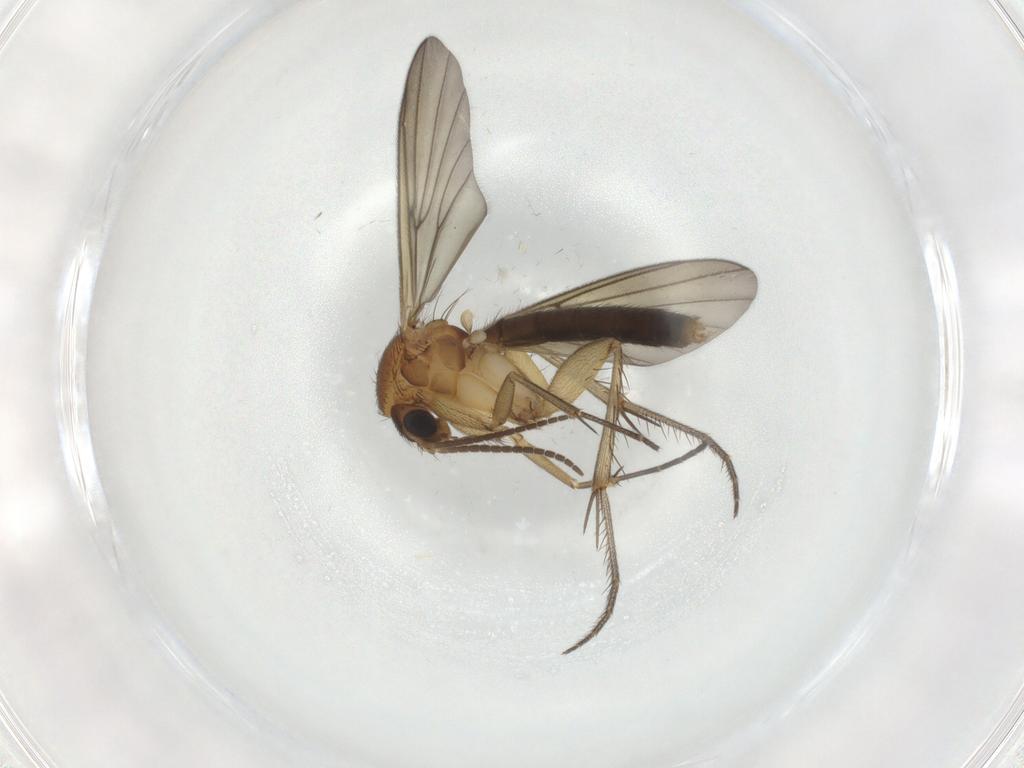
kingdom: Animalia
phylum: Arthropoda
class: Insecta
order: Diptera
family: Mycetophilidae
